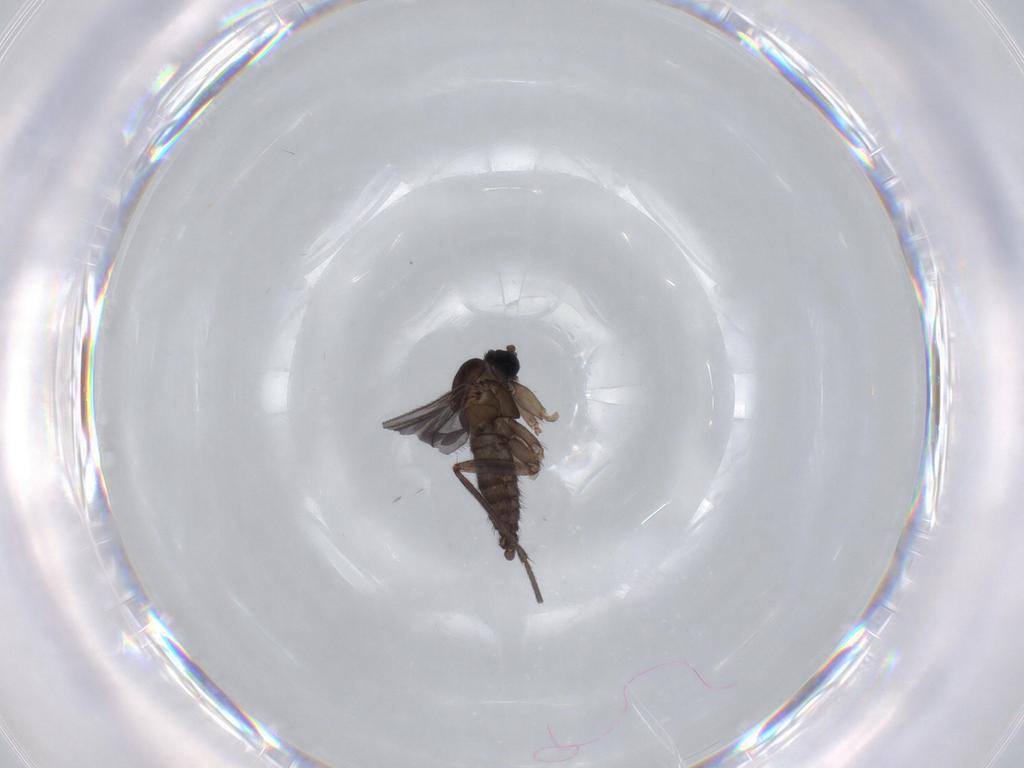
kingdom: Animalia
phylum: Arthropoda
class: Insecta
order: Diptera
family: Sciaridae
